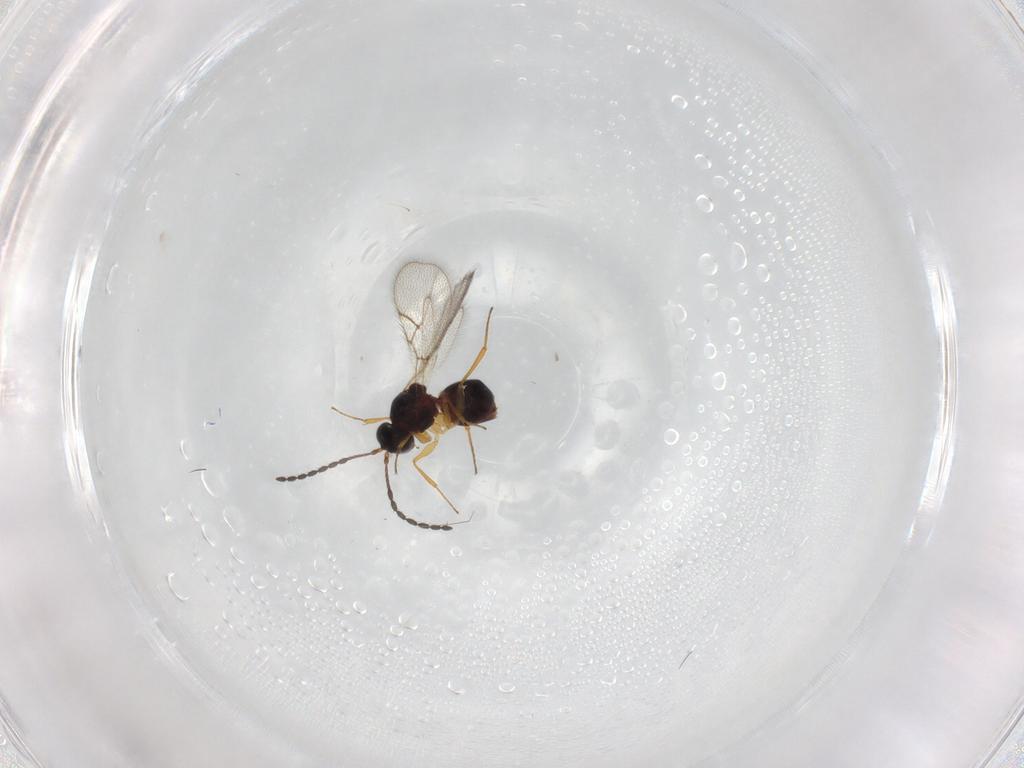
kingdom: Animalia
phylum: Arthropoda
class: Insecta
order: Hymenoptera
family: Figitidae
